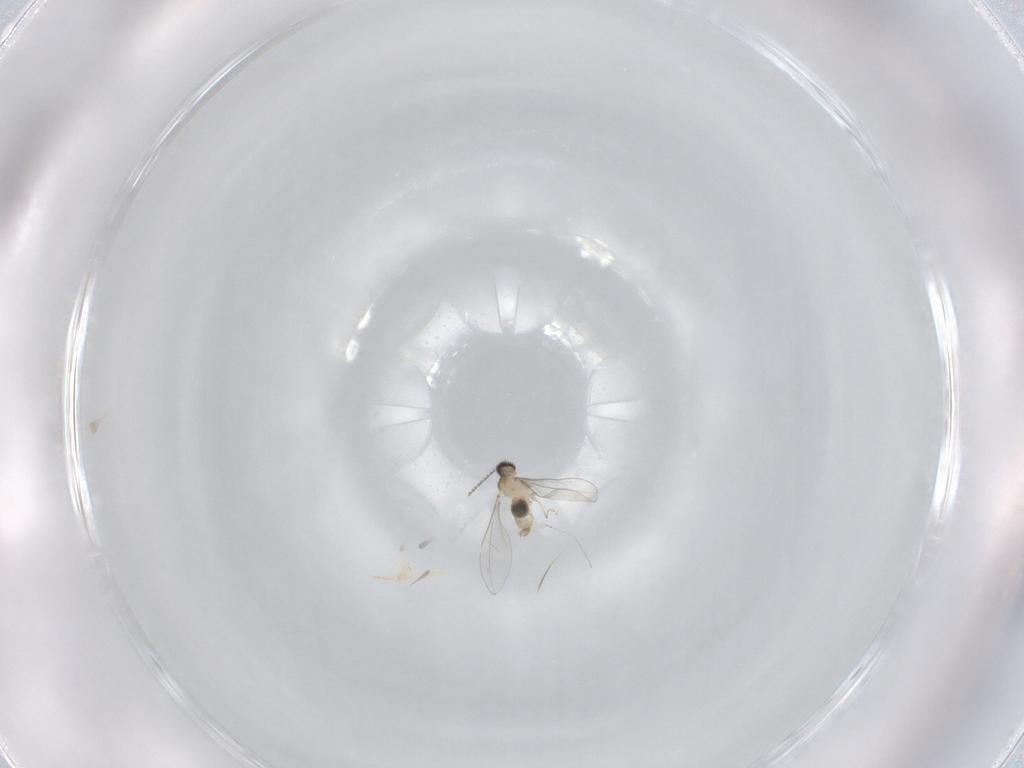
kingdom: Animalia
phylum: Arthropoda
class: Insecta
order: Diptera
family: Cecidomyiidae
